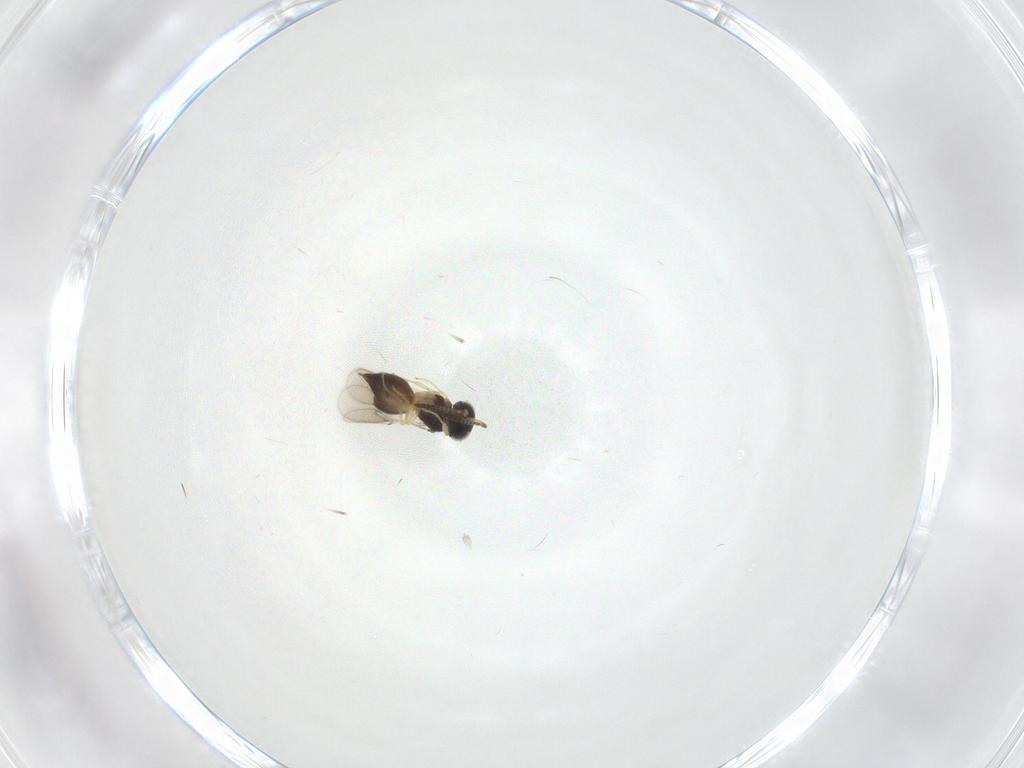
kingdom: Animalia
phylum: Arthropoda
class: Insecta
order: Hymenoptera
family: Scelionidae
